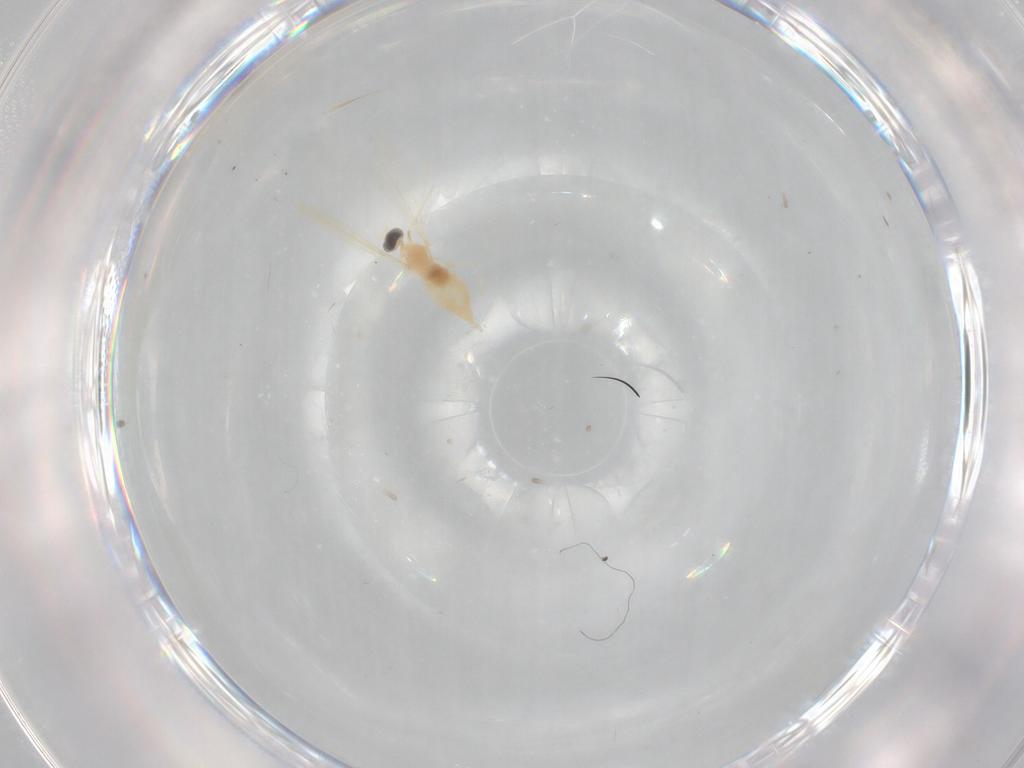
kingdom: Animalia
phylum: Arthropoda
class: Insecta
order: Diptera
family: Cecidomyiidae
